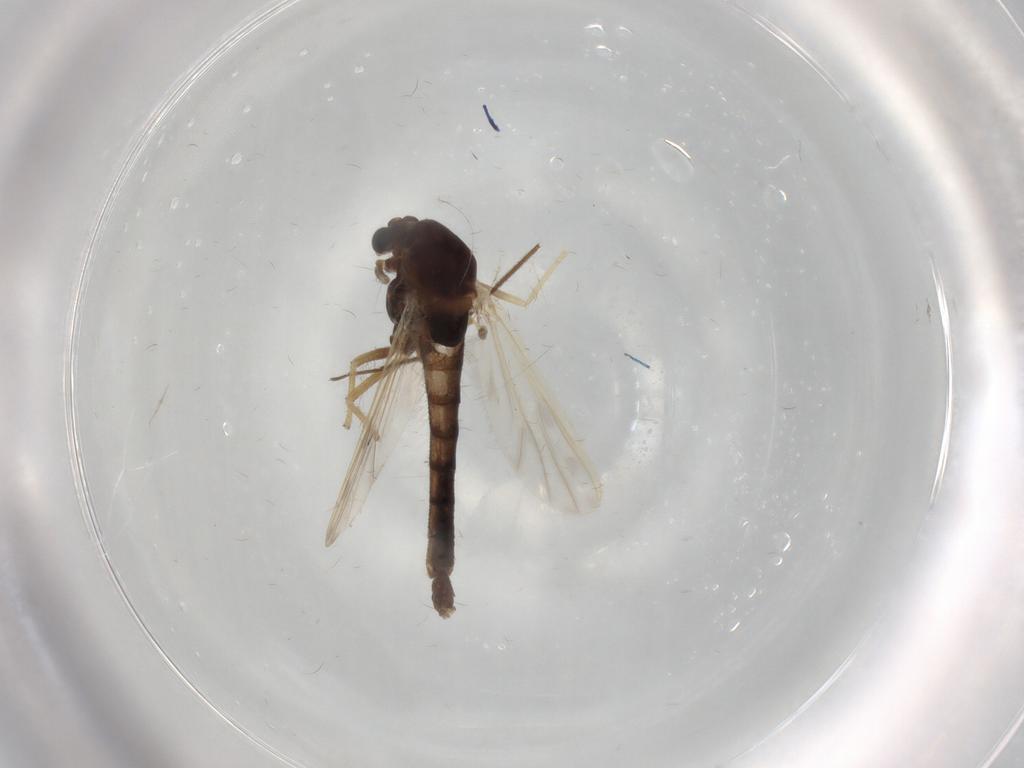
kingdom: Animalia
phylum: Arthropoda
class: Insecta
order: Diptera
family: Chironomidae
